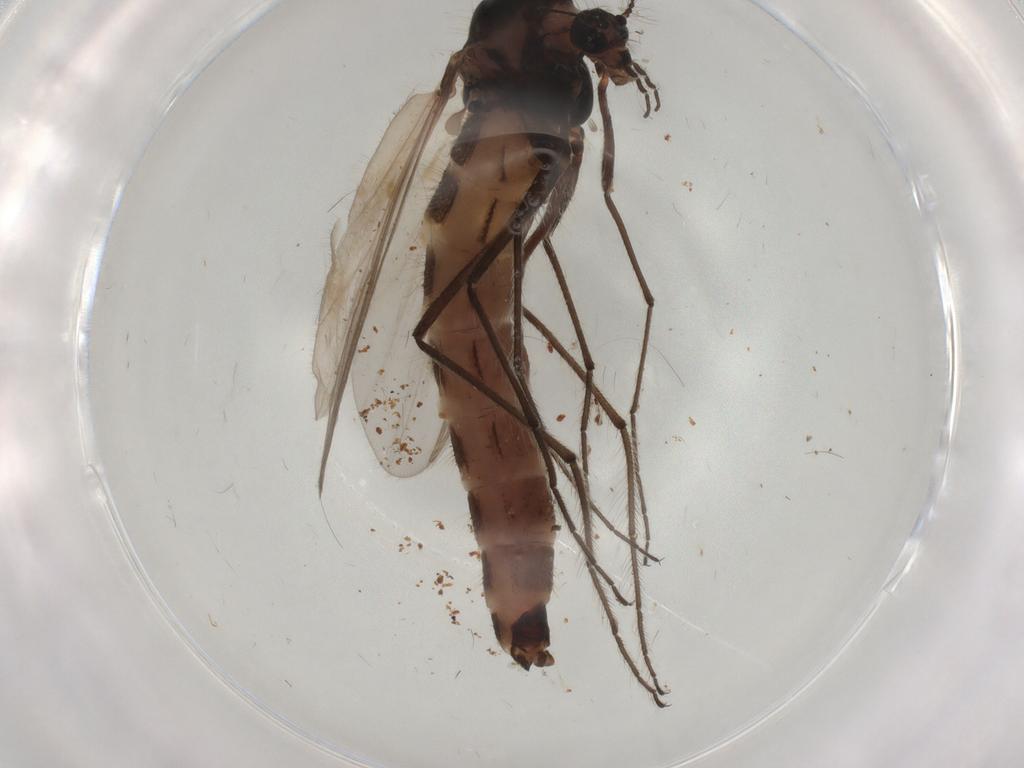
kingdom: Animalia
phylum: Arthropoda
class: Insecta
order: Diptera
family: Chironomidae
